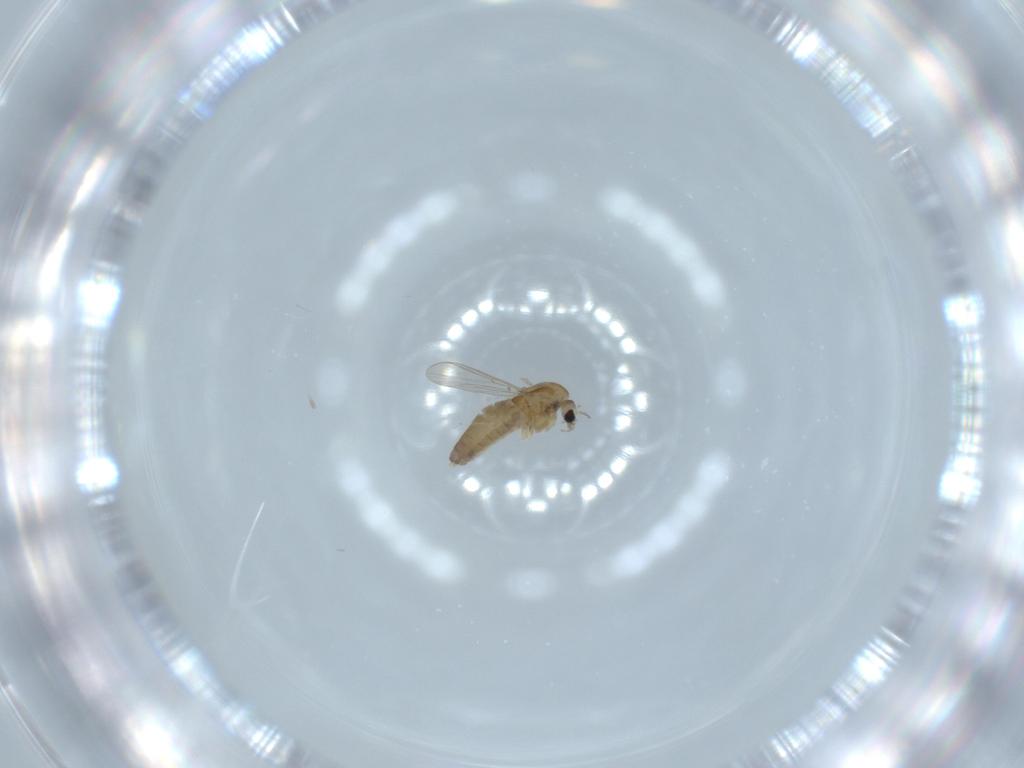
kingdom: Animalia
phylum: Arthropoda
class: Insecta
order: Diptera
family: Chironomidae
